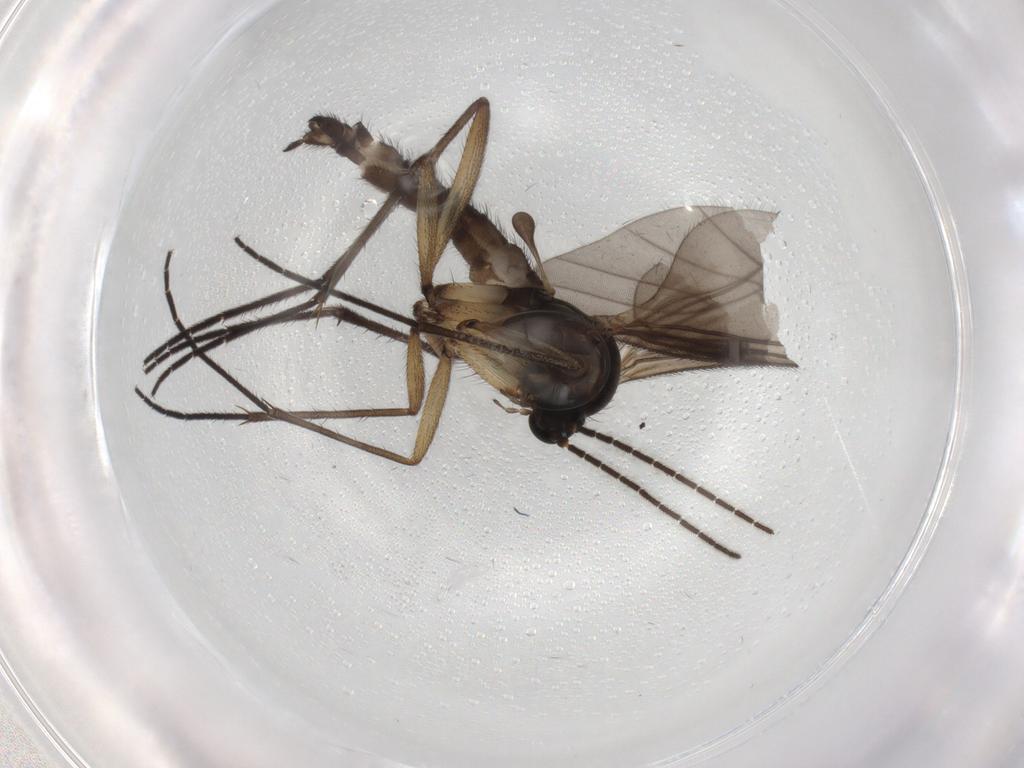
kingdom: Animalia
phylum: Arthropoda
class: Insecta
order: Diptera
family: Sciaridae
